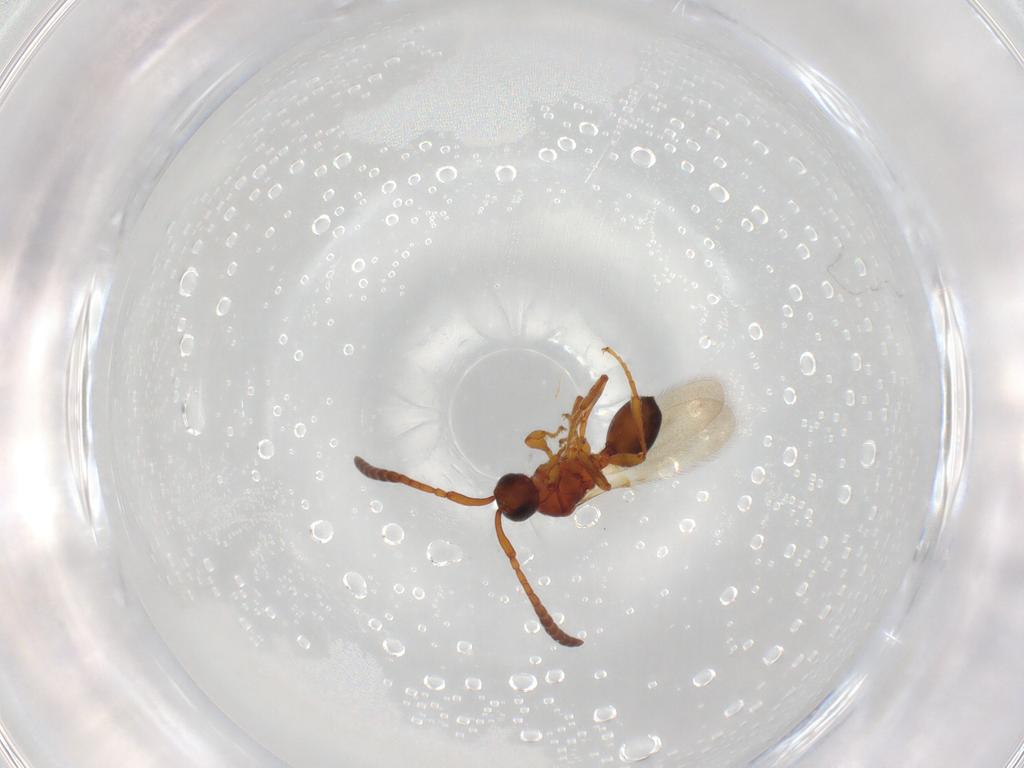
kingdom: Animalia
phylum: Arthropoda
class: Insecta
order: Hymenoptera
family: Diapriidae
